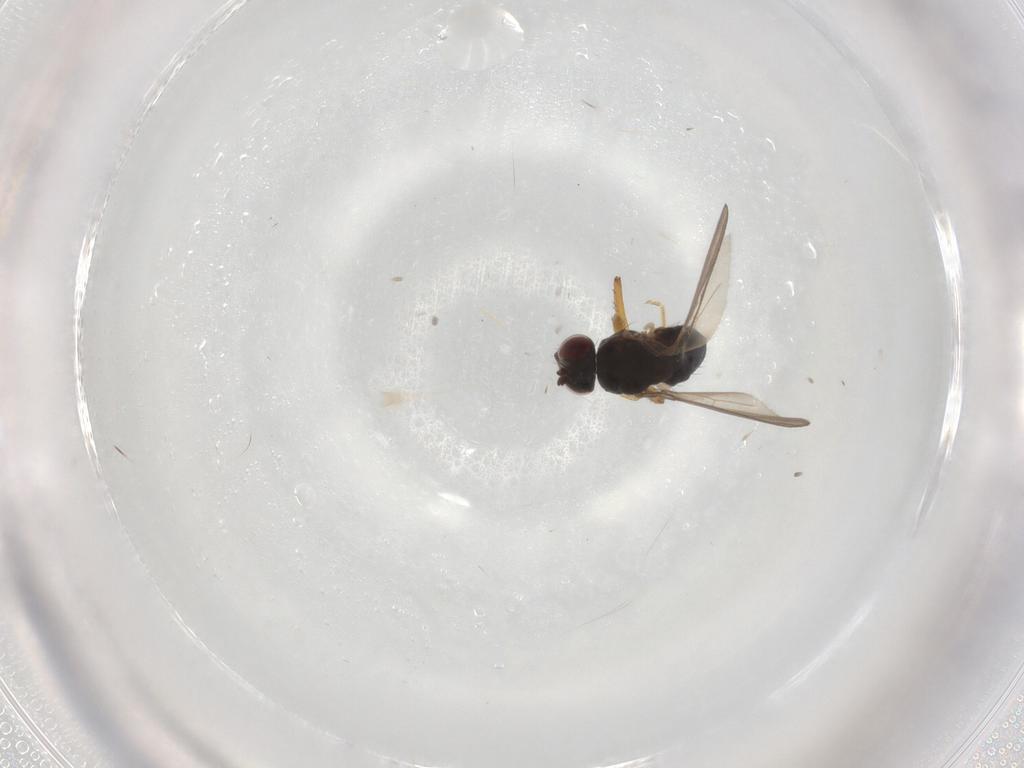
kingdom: Animalia
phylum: Arthropoda
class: Insecta
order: Diptera
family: Ephydridae
